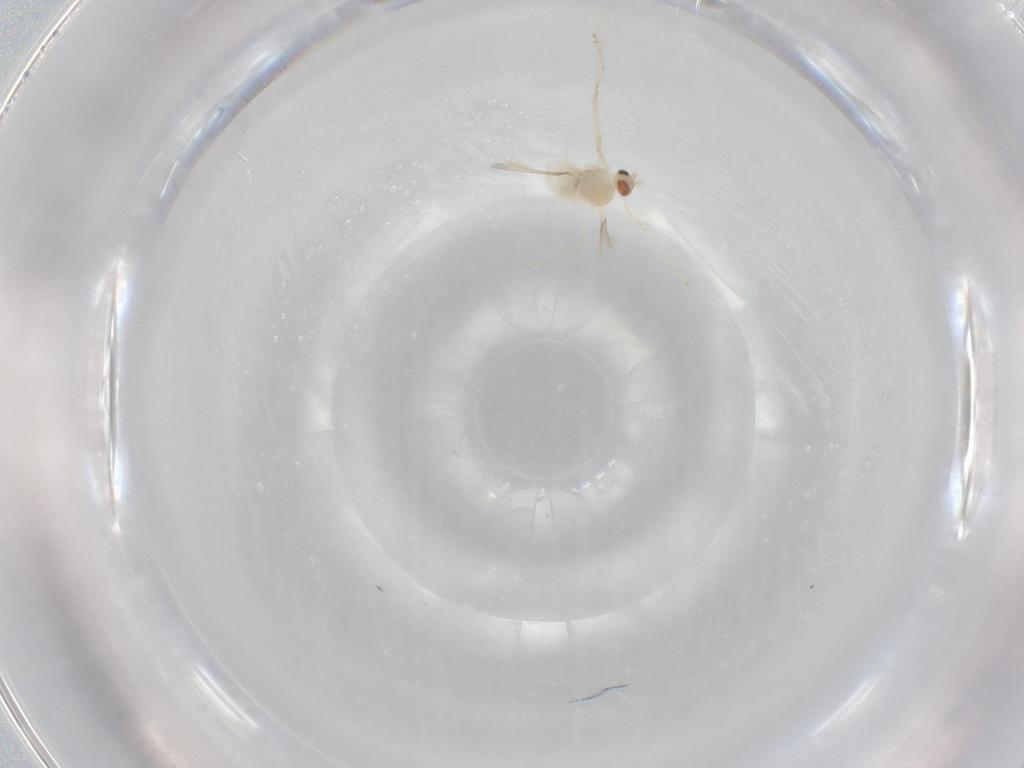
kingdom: Animalia
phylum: Arthropoda
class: Insecta
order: Diptera
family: Cecidomyiidae
